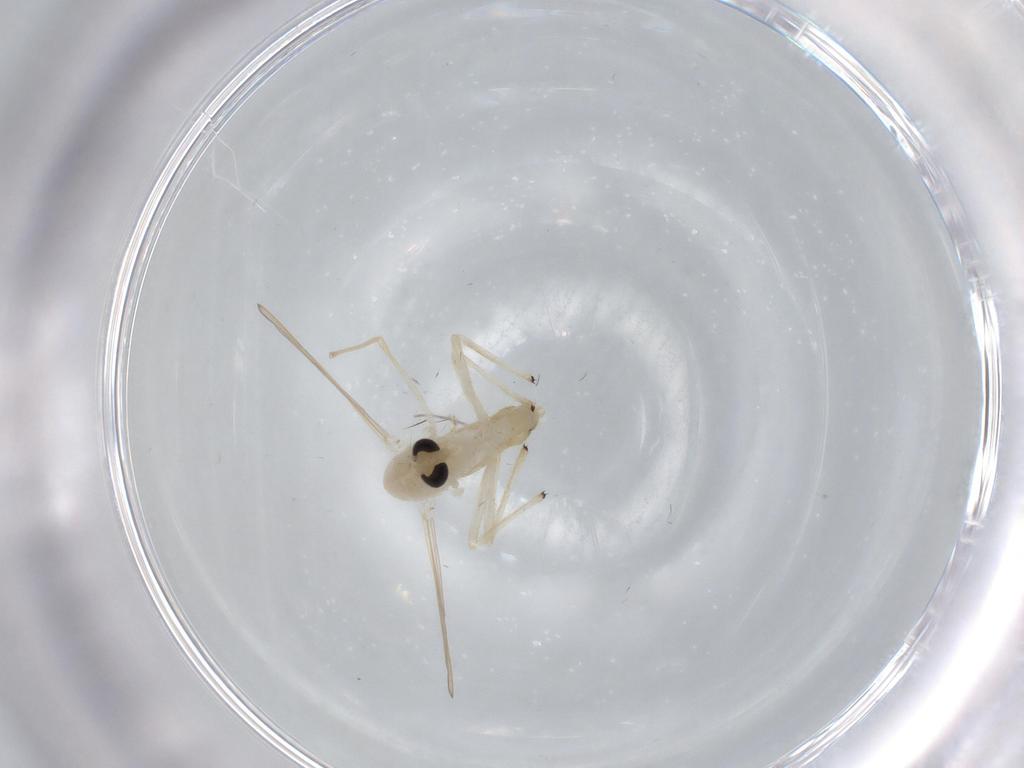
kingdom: Animalia
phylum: Arthropoda
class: Insecta
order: Diptera
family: Chironomidae
